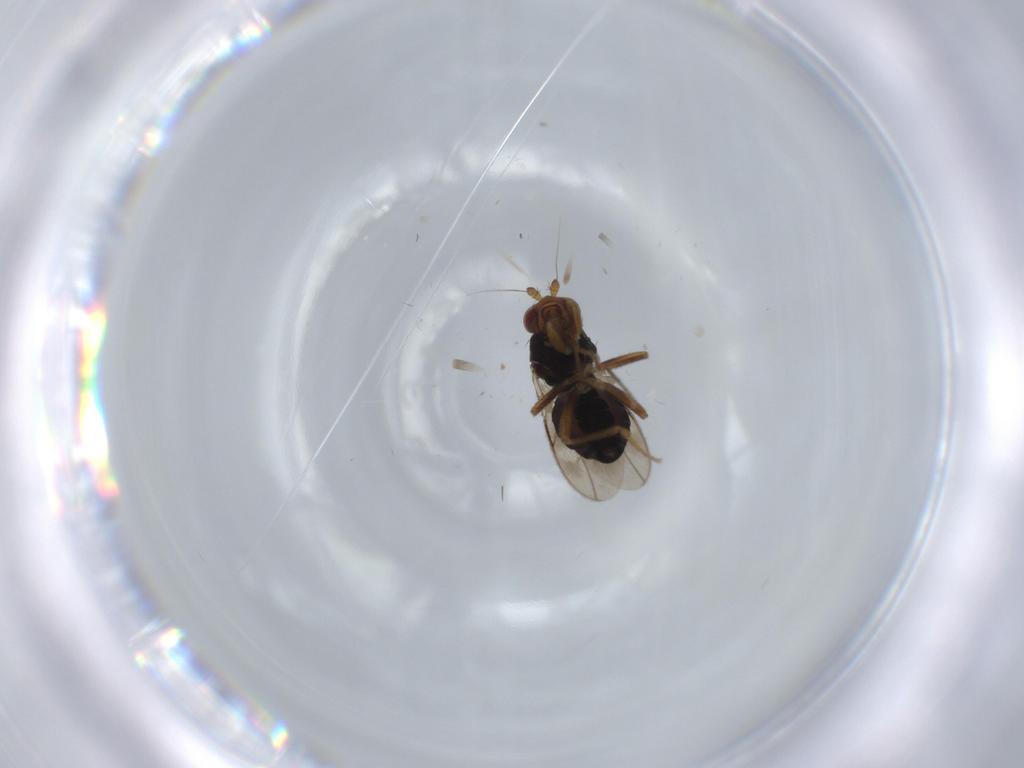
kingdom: Animalia
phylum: Arthropoda
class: Insecta
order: Diptera
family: Sphaeroceridae
